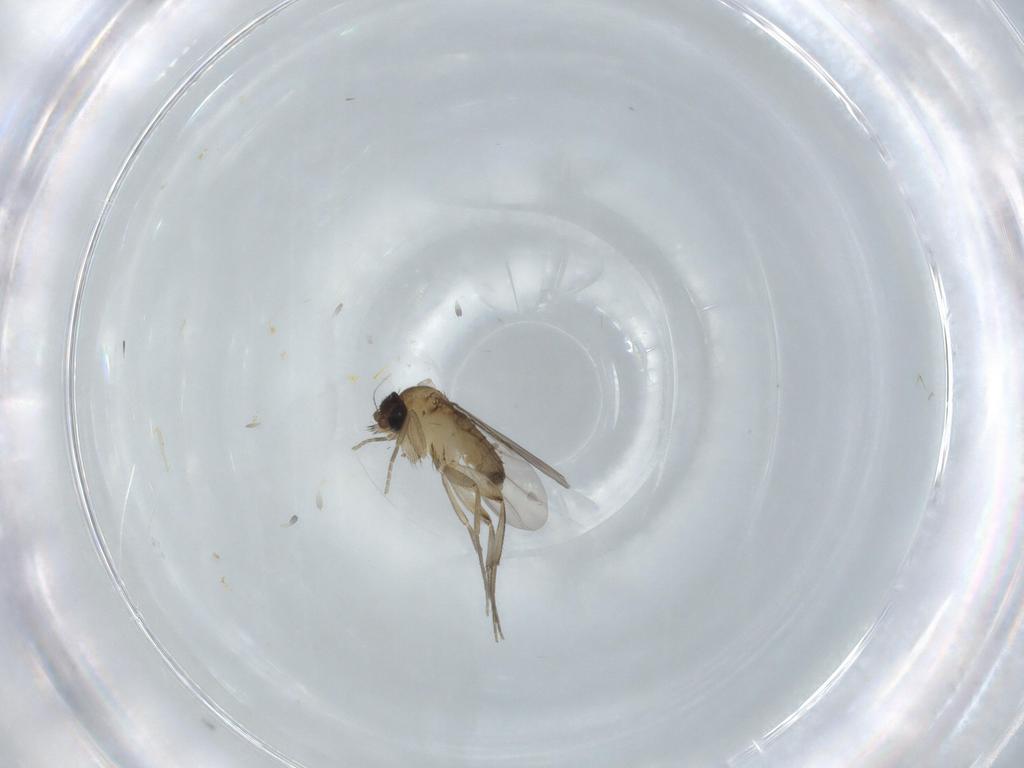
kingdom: Animalia
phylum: Arthropoda
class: Insecta
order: Diptera
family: Phoridae
